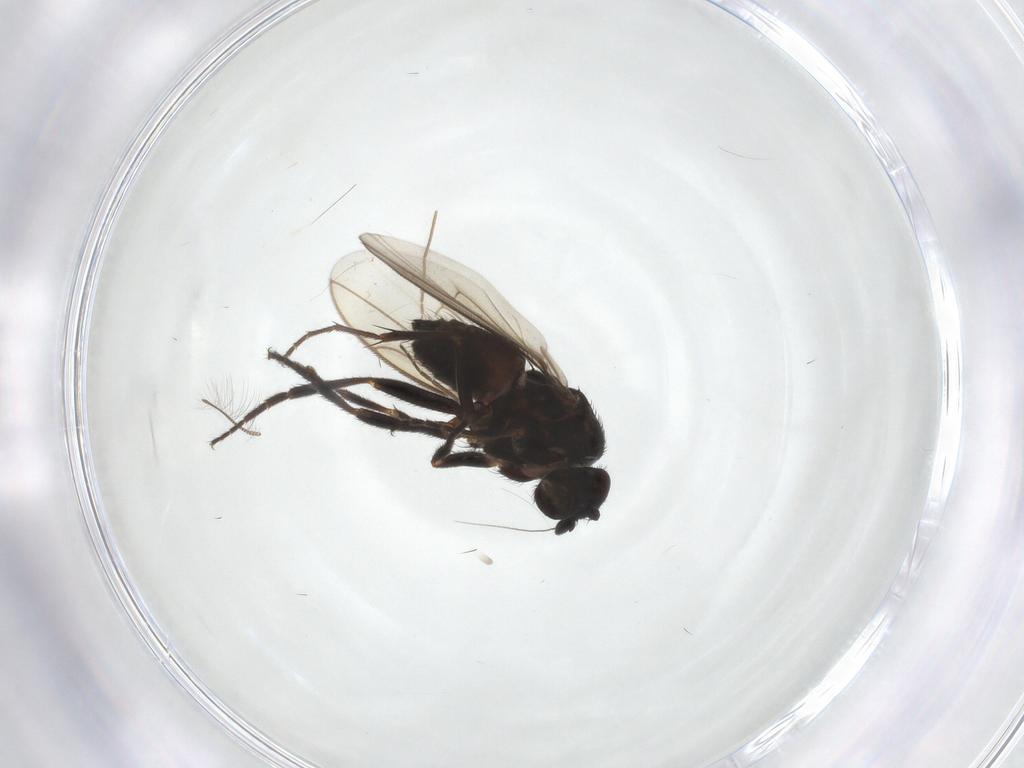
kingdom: Animalia
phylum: Arthropoda
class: Insecta
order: Diptera
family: Sphaeroceridae
